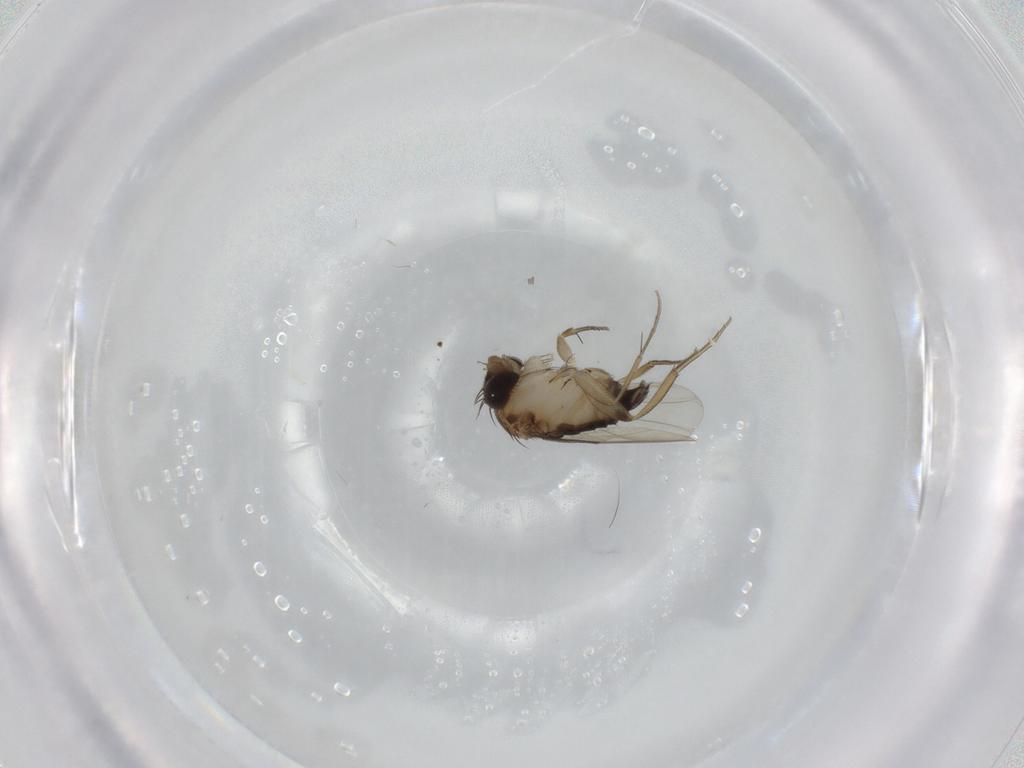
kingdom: Animalia
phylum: Arthropoda
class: Insecta
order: Diptera
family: Phoridae
